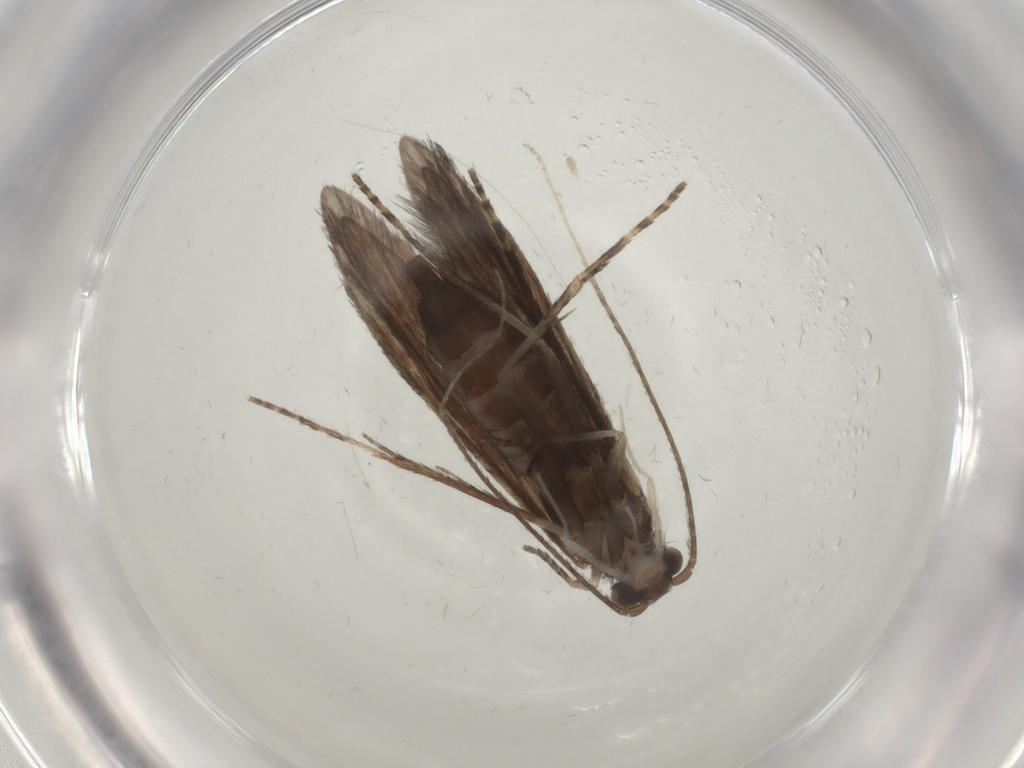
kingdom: Animalia
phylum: Arthropoda
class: Insecta
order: Trichoptera
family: Xiphocentronidae
